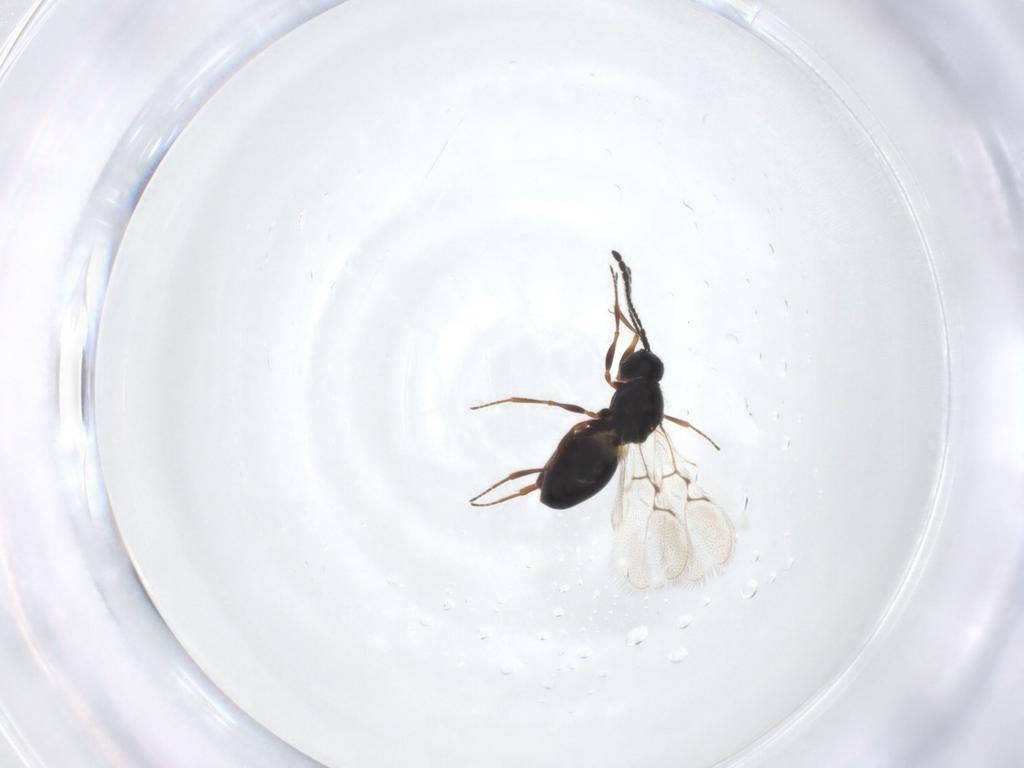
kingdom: Animalia
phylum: Arthropoda
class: Insecta
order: Hymenoptera
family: Figitidae
